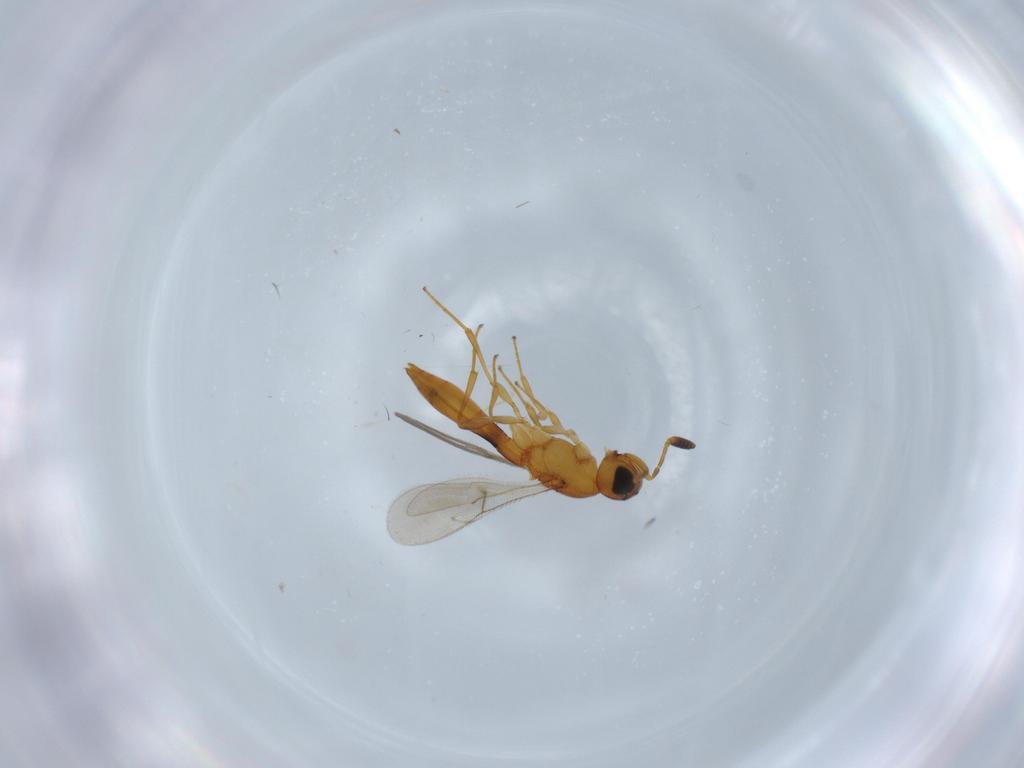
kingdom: Animalia
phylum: Arthropoda
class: Insecta
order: Hymenoptera
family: Scelionidae
